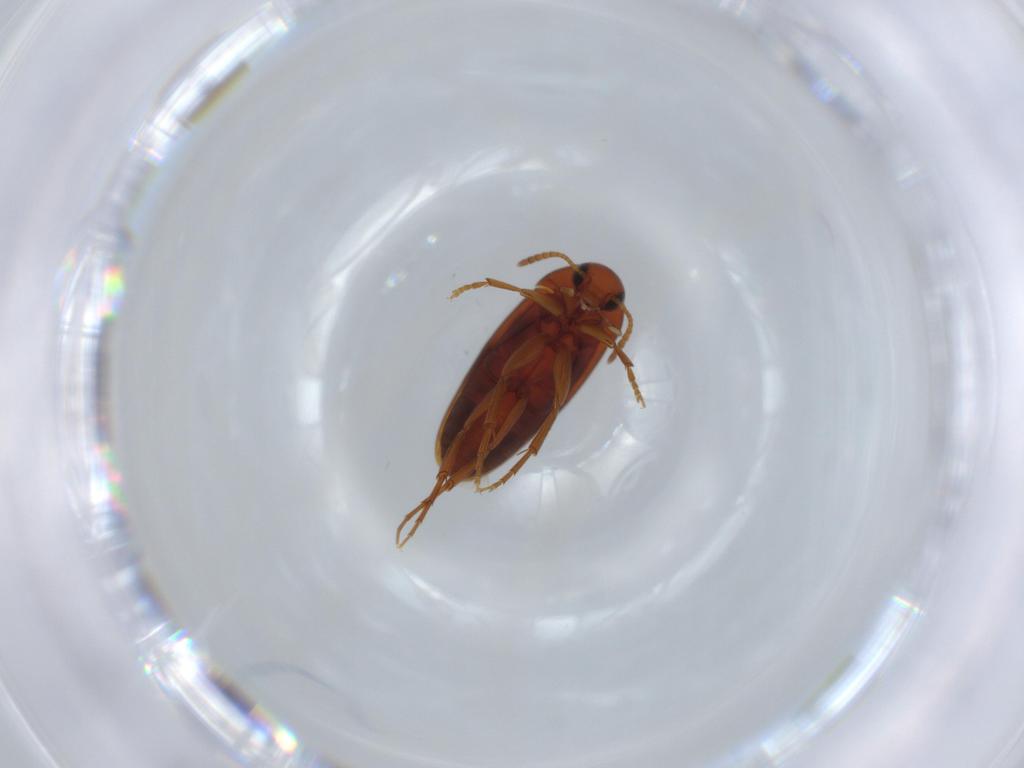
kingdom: Animalia
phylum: Arthropoda
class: Insecta
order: Coleoptera
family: Scraptiidae
